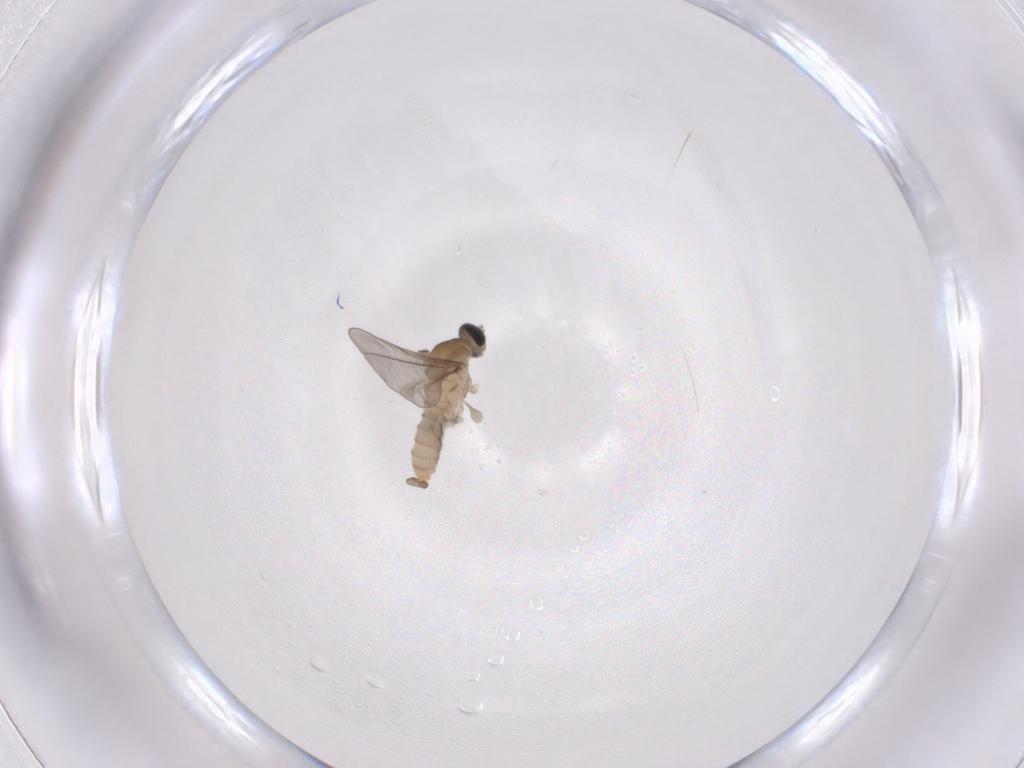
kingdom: Animalia
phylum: Arthropoda
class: Insecta
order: Diptera
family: Cecidomyiidae
